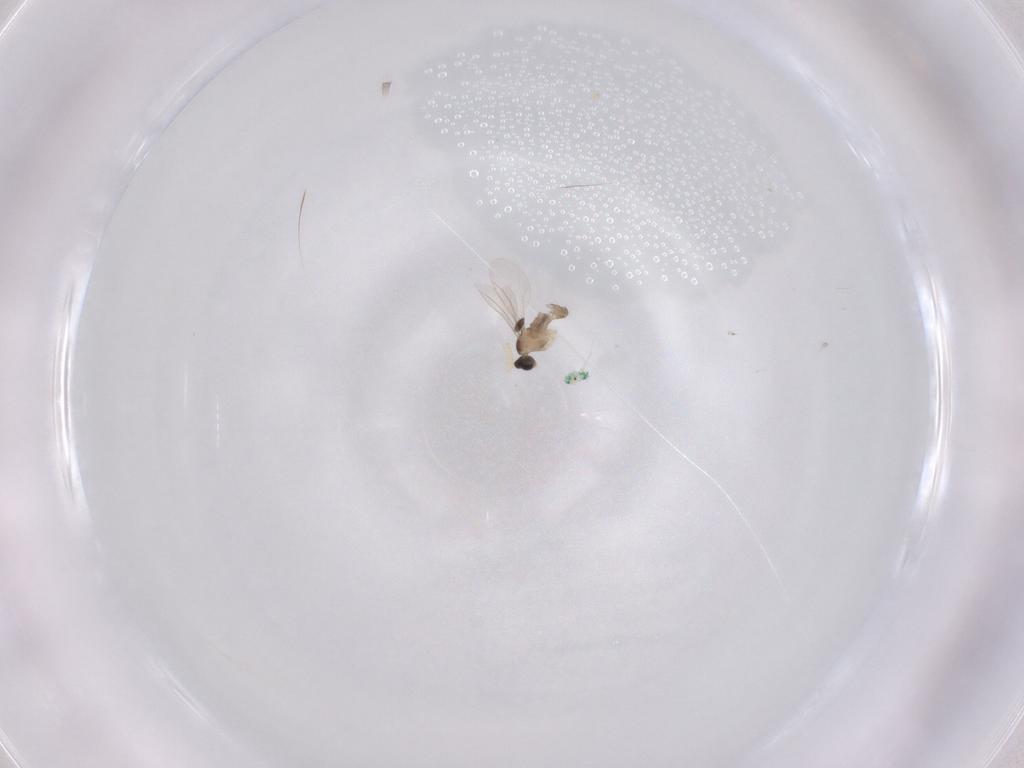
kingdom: Animalia
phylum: Arthropoda
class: Insecta
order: Diptera
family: Cecidomyiidae
